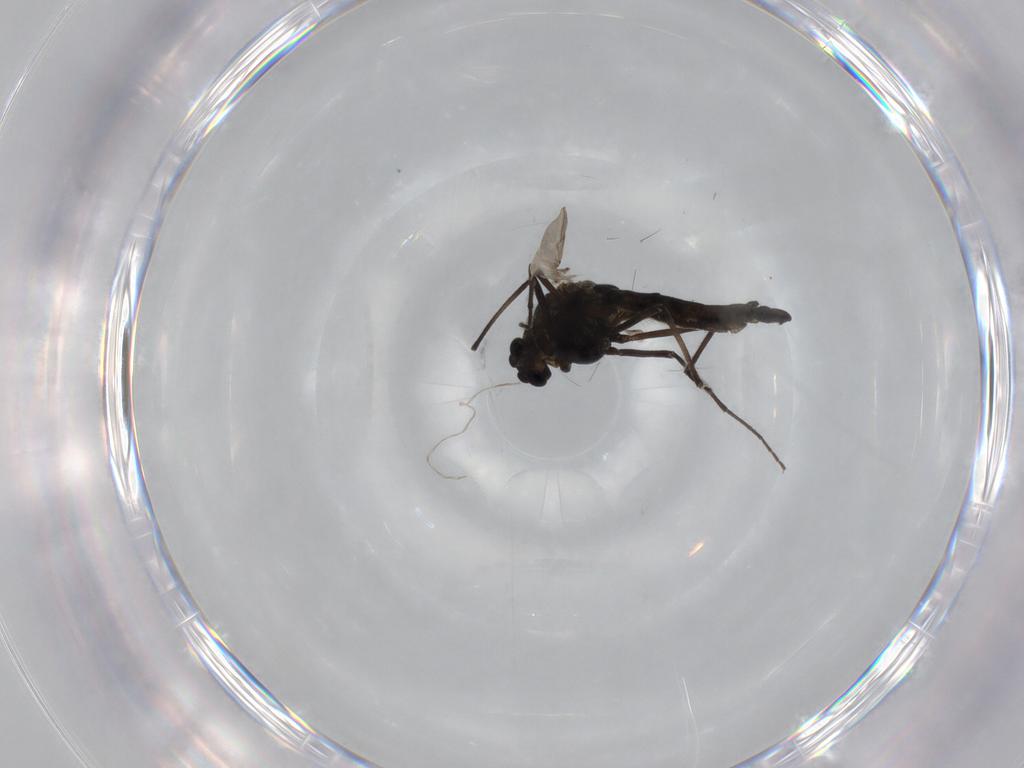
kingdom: Animalia
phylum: Arthropoda
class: Insecta
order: Diptera
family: Culicidae
